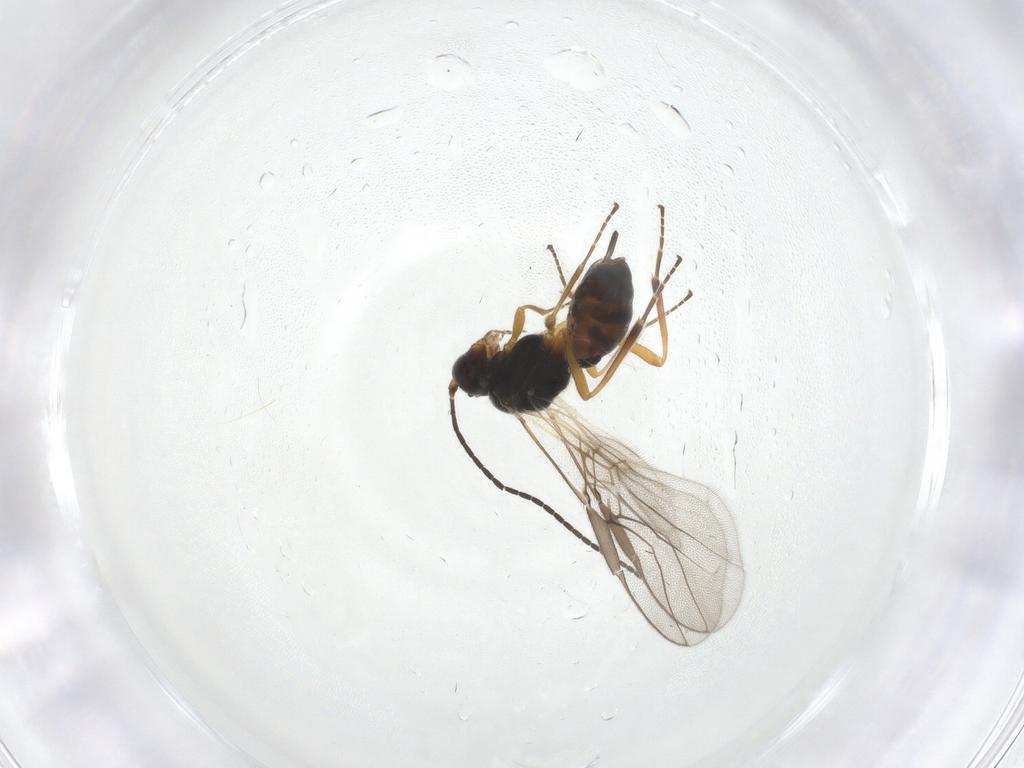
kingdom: Animalia
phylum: Arthropoda
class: Insecta
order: Hymenoptera
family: Braconidae
